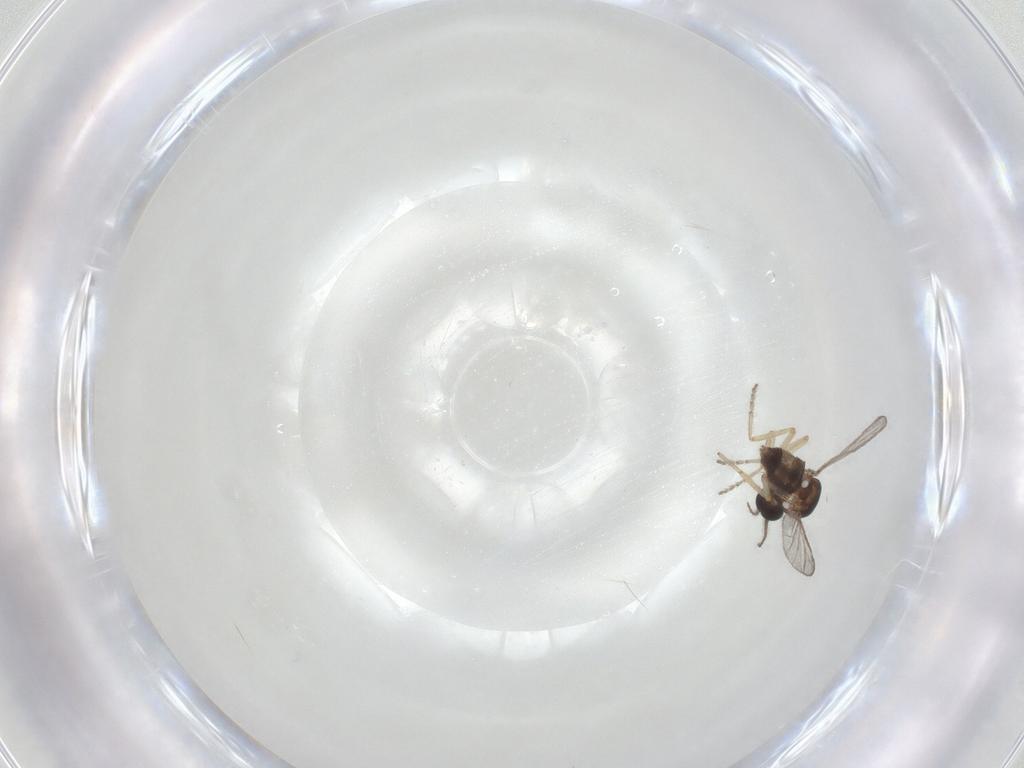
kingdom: Animalia
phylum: Arthropoda
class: Insecta
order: Diptera
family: Ceratopogonidae
